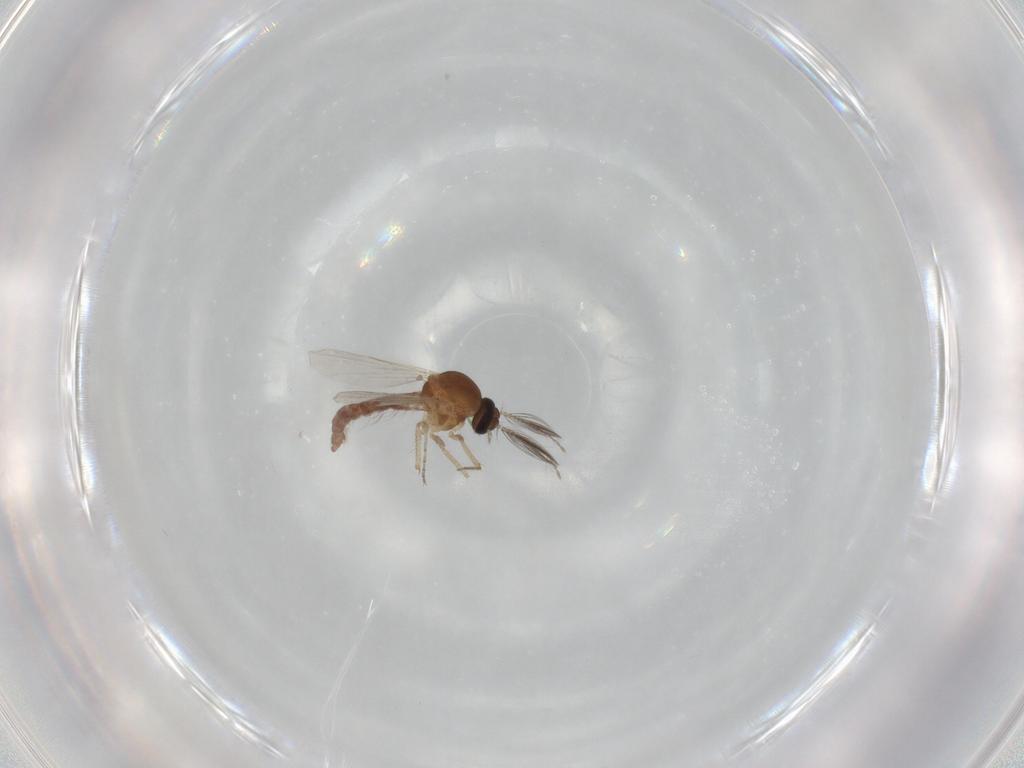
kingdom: Animalia
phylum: Arthropoda
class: Insecta
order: Diptera
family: Ceratopogonidae
